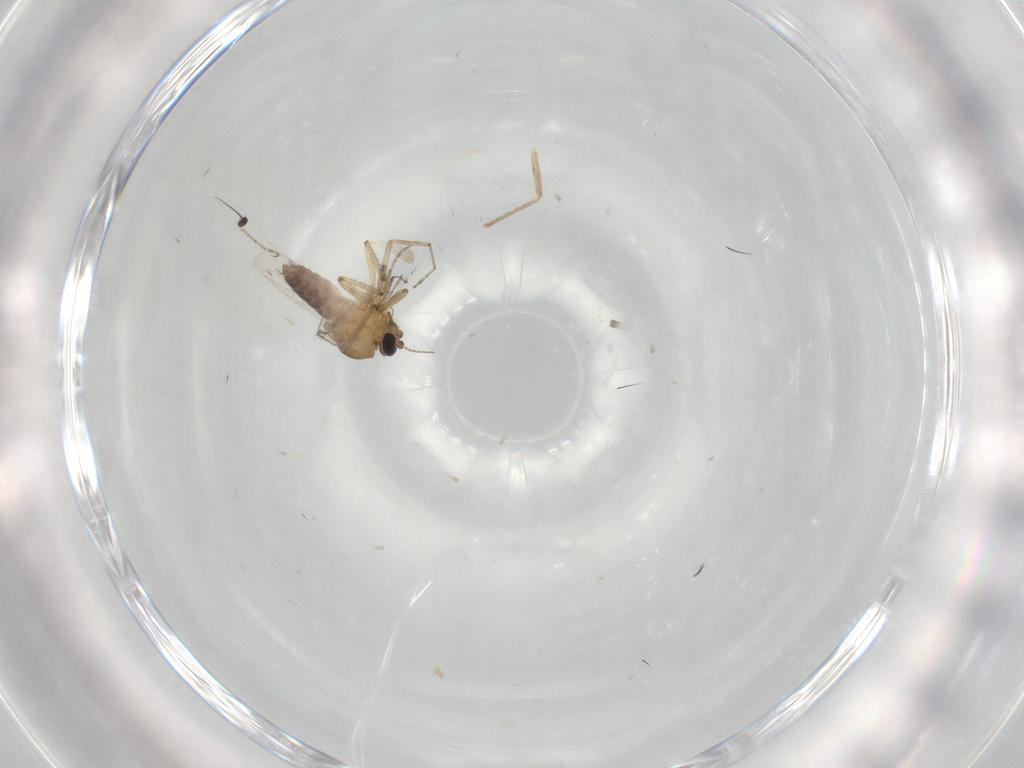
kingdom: Animalia
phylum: Arthropoda
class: Insecta
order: Diptera
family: Ceratopogonidae
